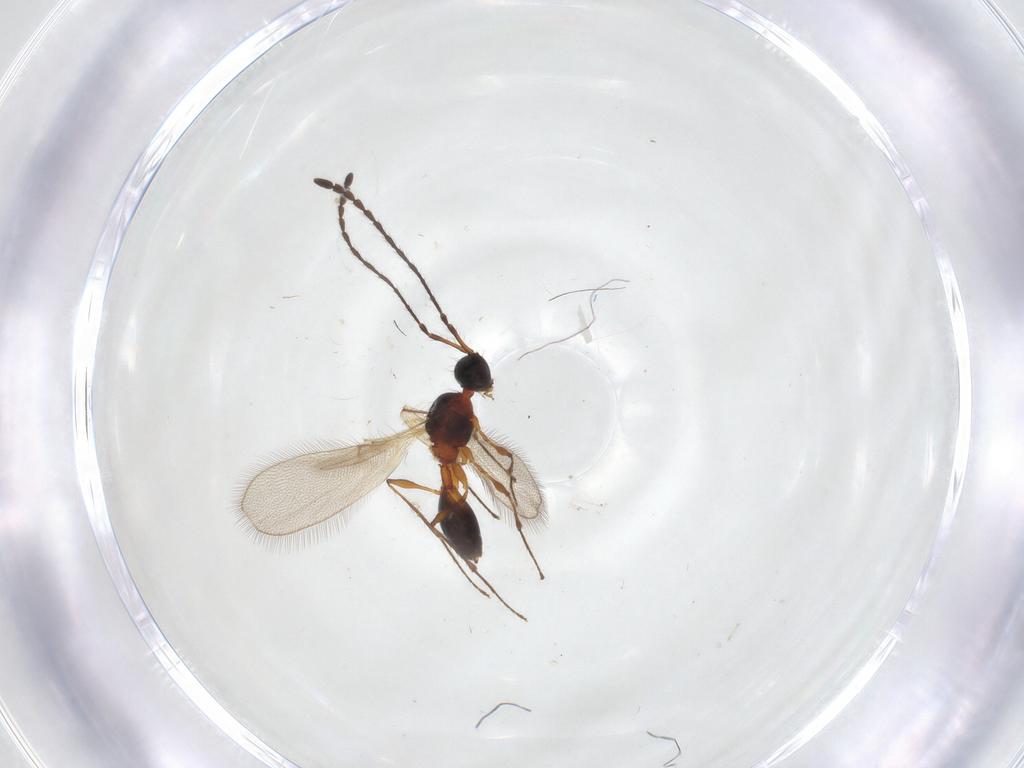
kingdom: Animalia
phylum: Arthropoda
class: Insecta
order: Hymenoptera
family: Diapriidae
